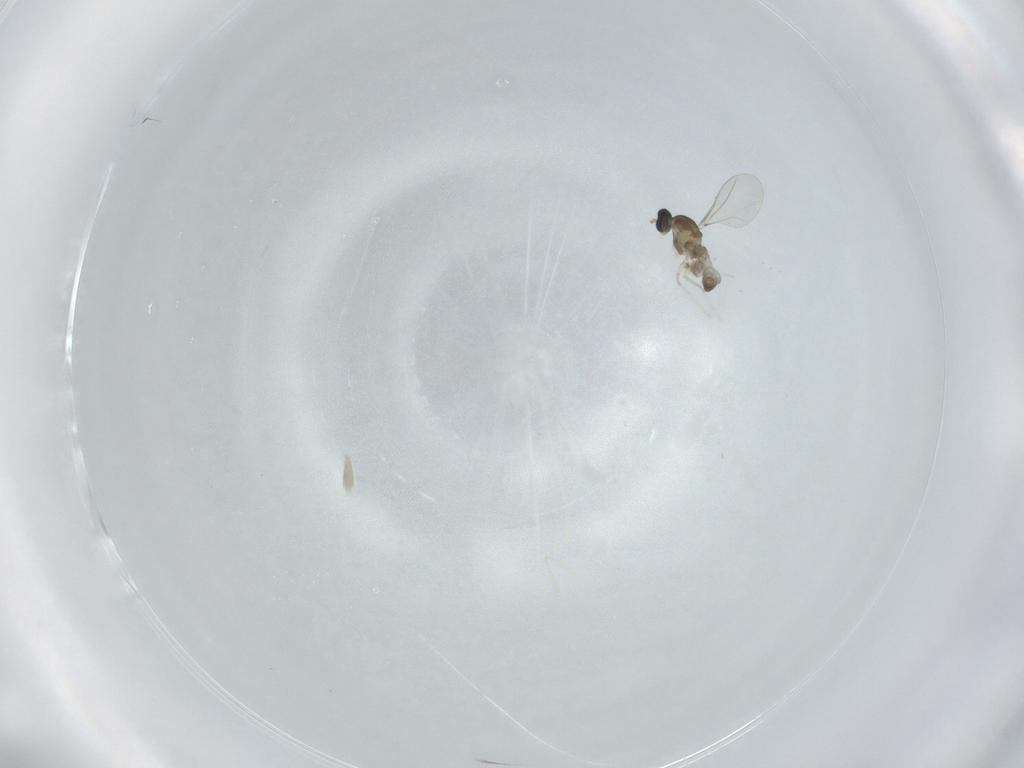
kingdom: Animalia
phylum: Arthropoda
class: Insecta
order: Diptera
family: Cecidomyiidae
